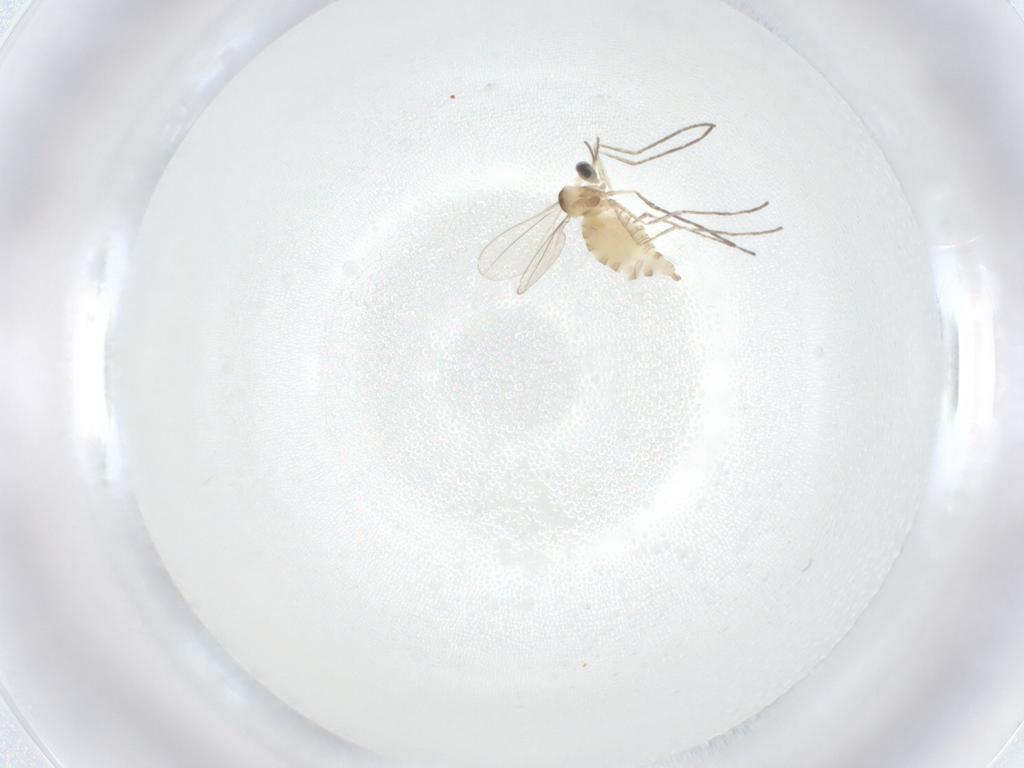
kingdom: Animalia
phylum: Arthropoda
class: Insecta
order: Diptera
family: Cecidomyiidae
